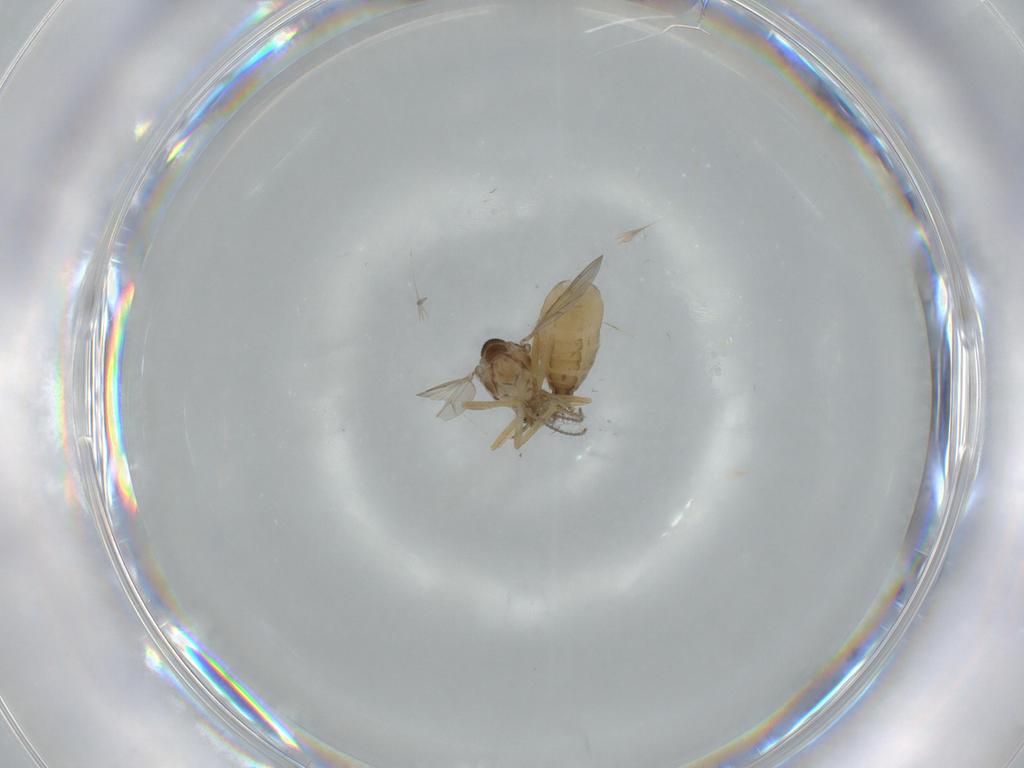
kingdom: Animalia
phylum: Arthropoda
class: Insecta
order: Diptera
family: Ceratopogonidae
